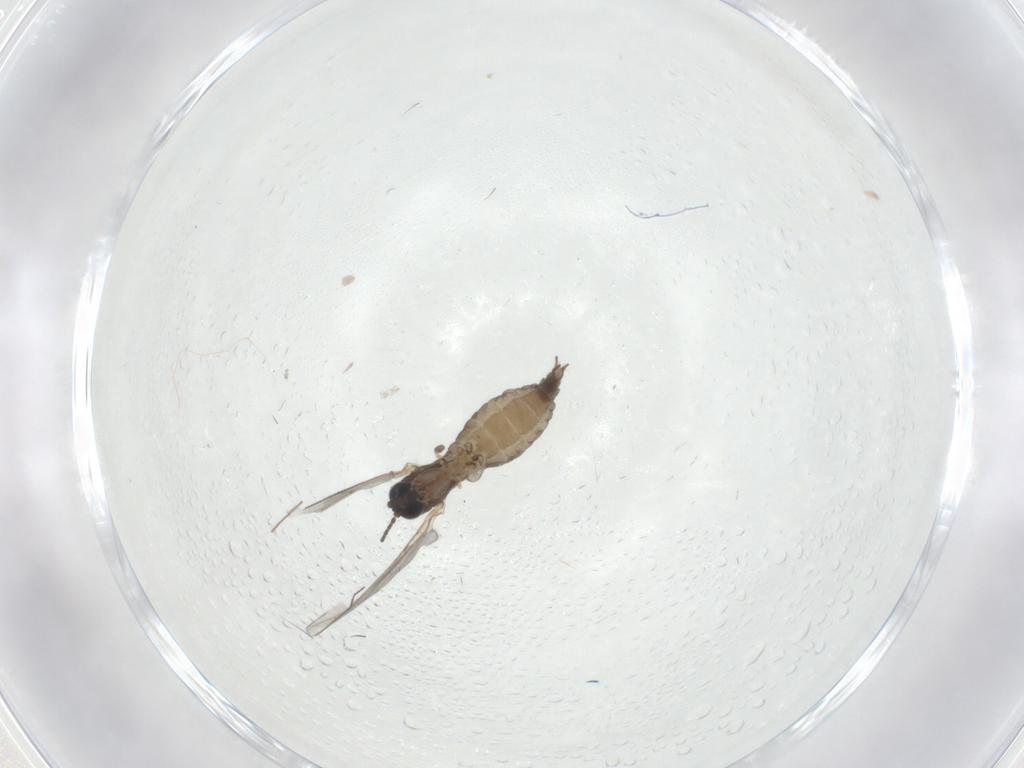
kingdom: Animalia
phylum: Arthropoda
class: Insecta
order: Diptera
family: Sciaridae
